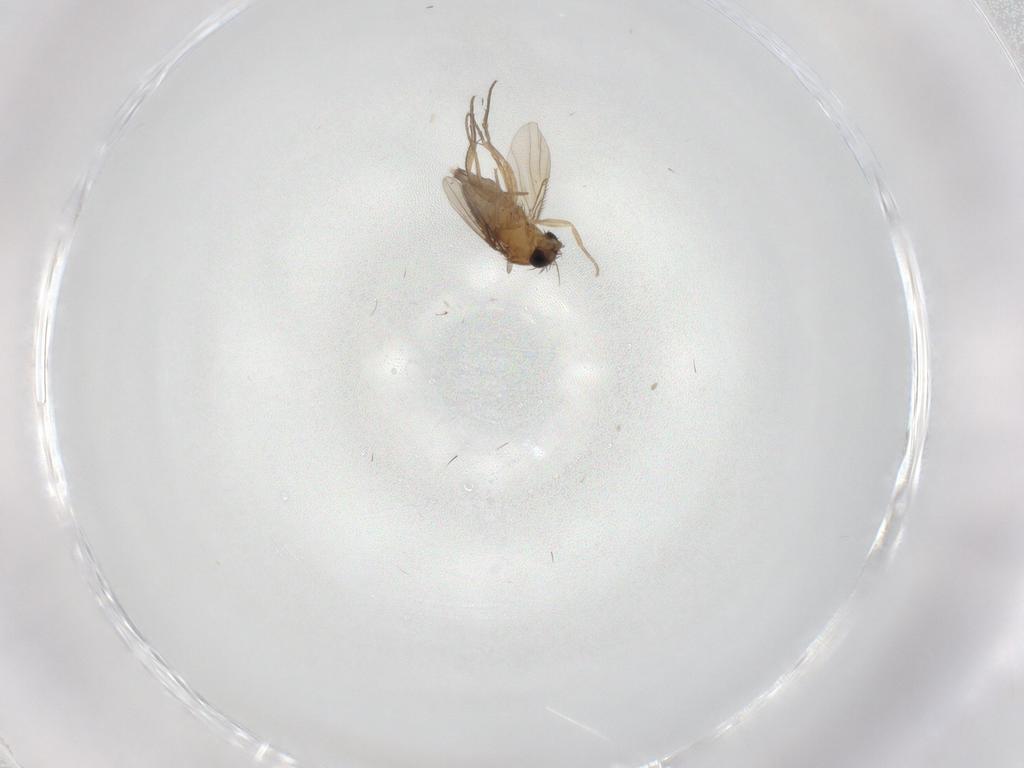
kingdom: Animalia
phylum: Arthropoda
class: Insecta
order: Diptera
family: Phoridae
